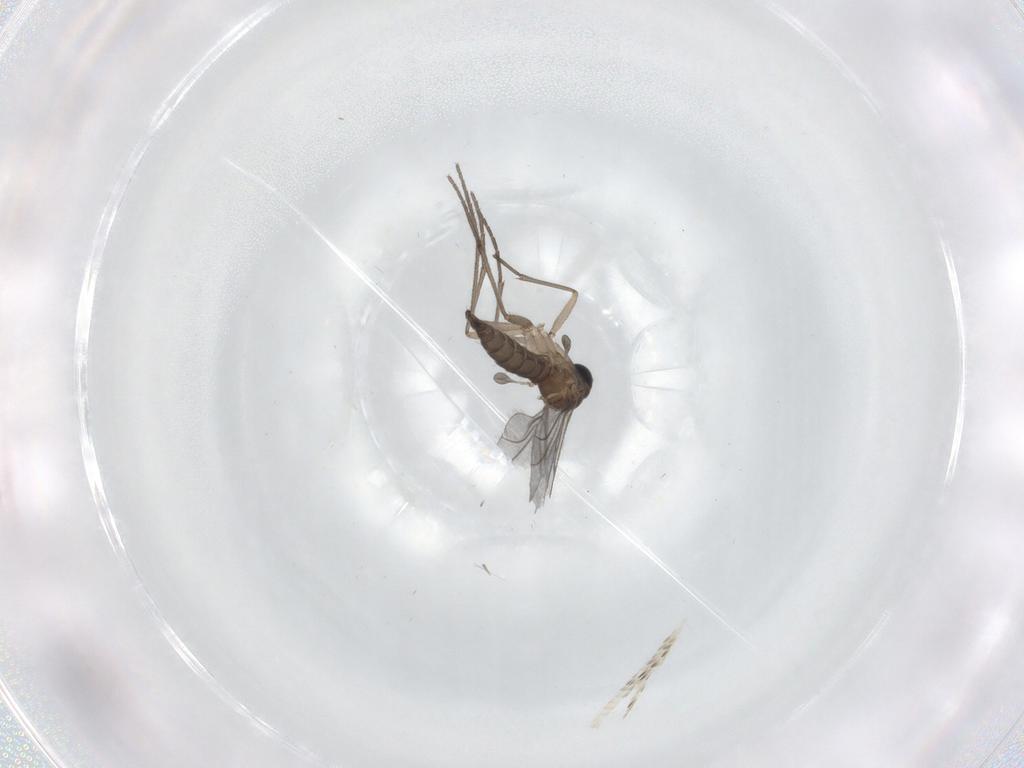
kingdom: Animalia
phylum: Arthropoda
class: Insecta
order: Diptera
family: Sciaridae
